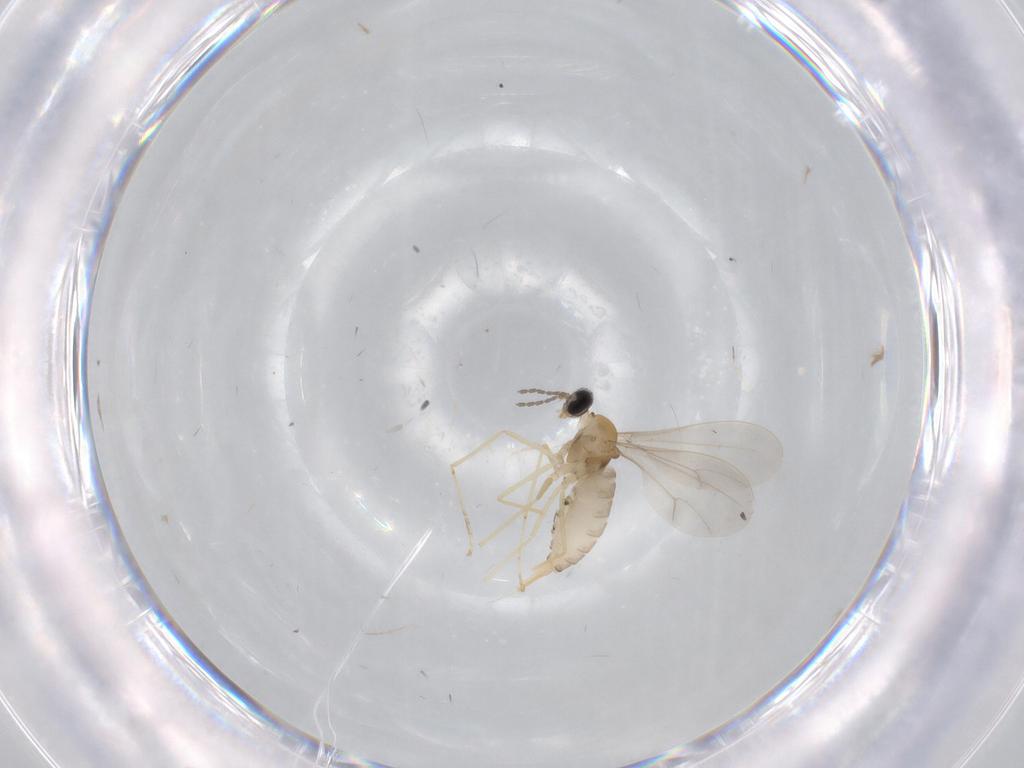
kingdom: Animalia
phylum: Arthropoda
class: Insecta
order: Diptera
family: Cecidomyiidae
